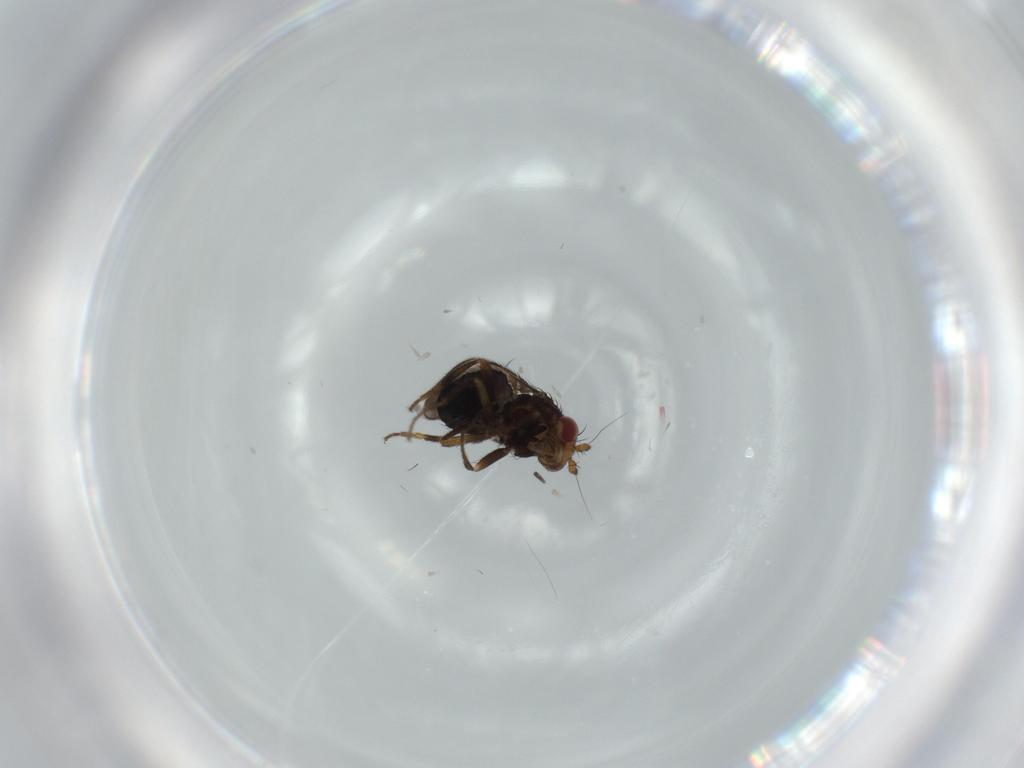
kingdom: Animalia
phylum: Arthropoda
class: Insecta
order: Diptera
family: Sphaeroceridae
